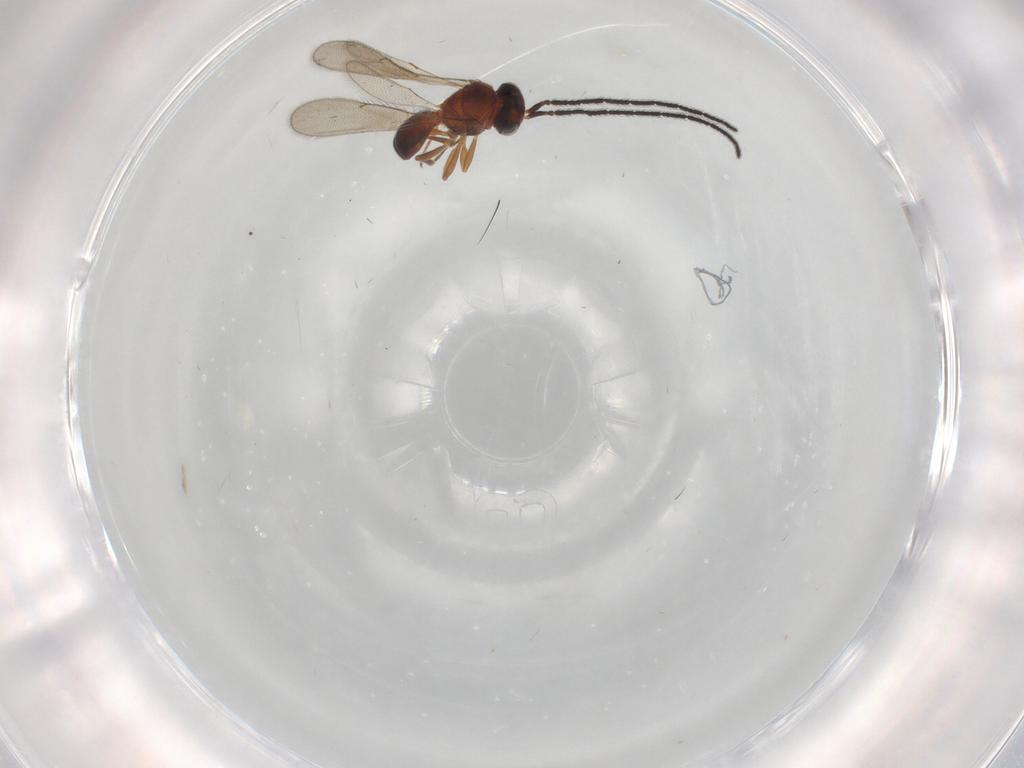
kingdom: Animalia
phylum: Arthropoda
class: Insecta
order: Hymenoptera
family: Scelionidae
